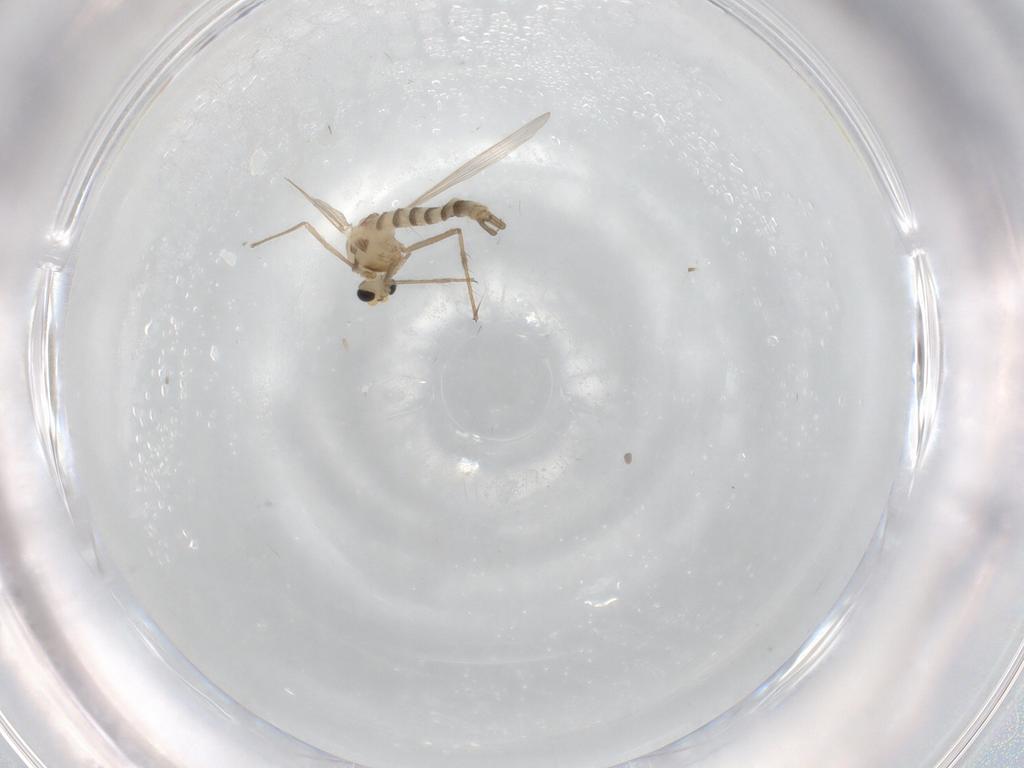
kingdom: Animalia
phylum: Arthropoda
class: Insecta
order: Diptera
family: Chironomidae
